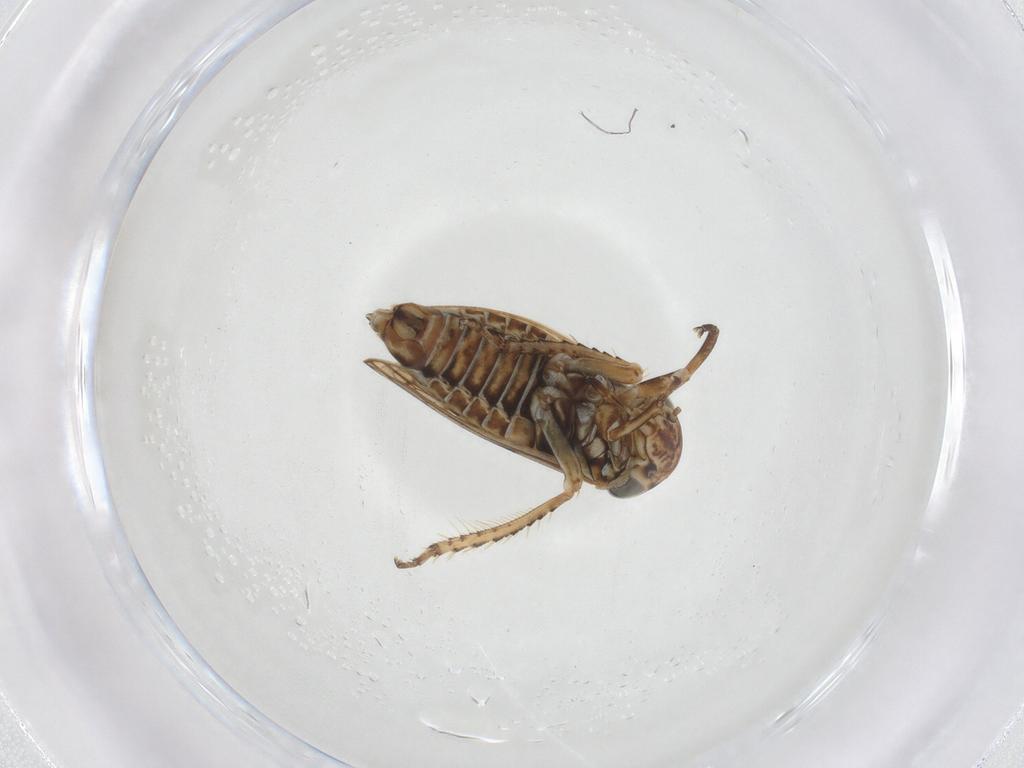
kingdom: Animalia
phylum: Arthropoda
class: Insecta
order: Hemiptera
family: Cicadellidae
